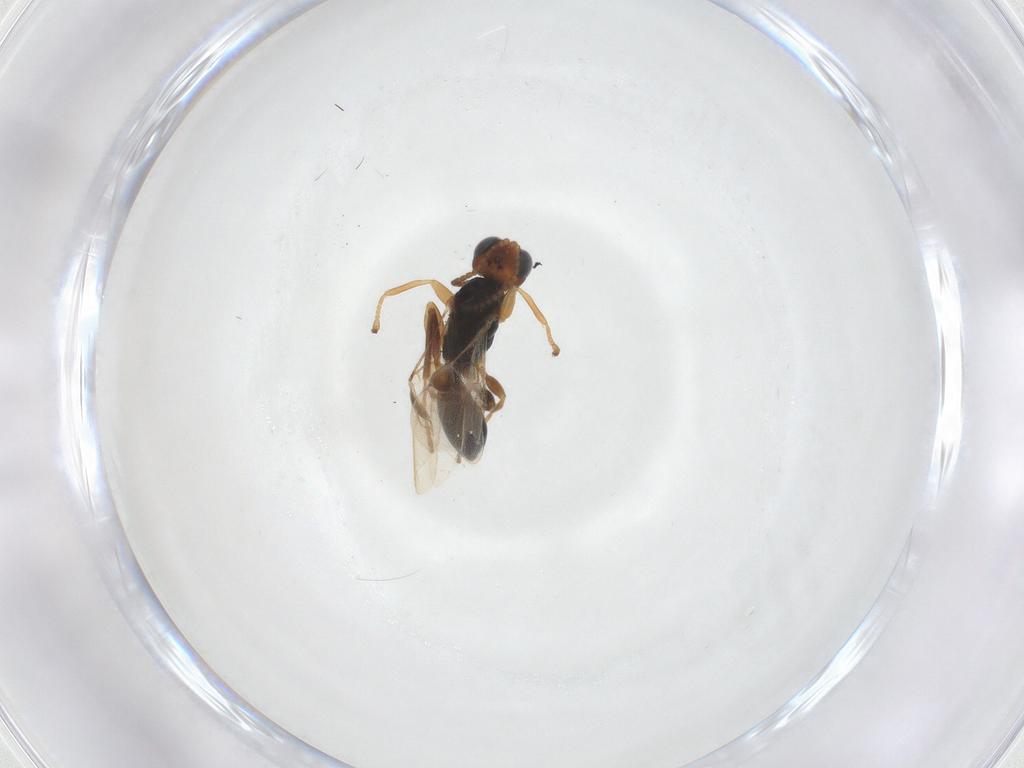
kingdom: Animalia
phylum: Arthropoda
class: Insecta
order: Hymenoptera
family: Braconidae
